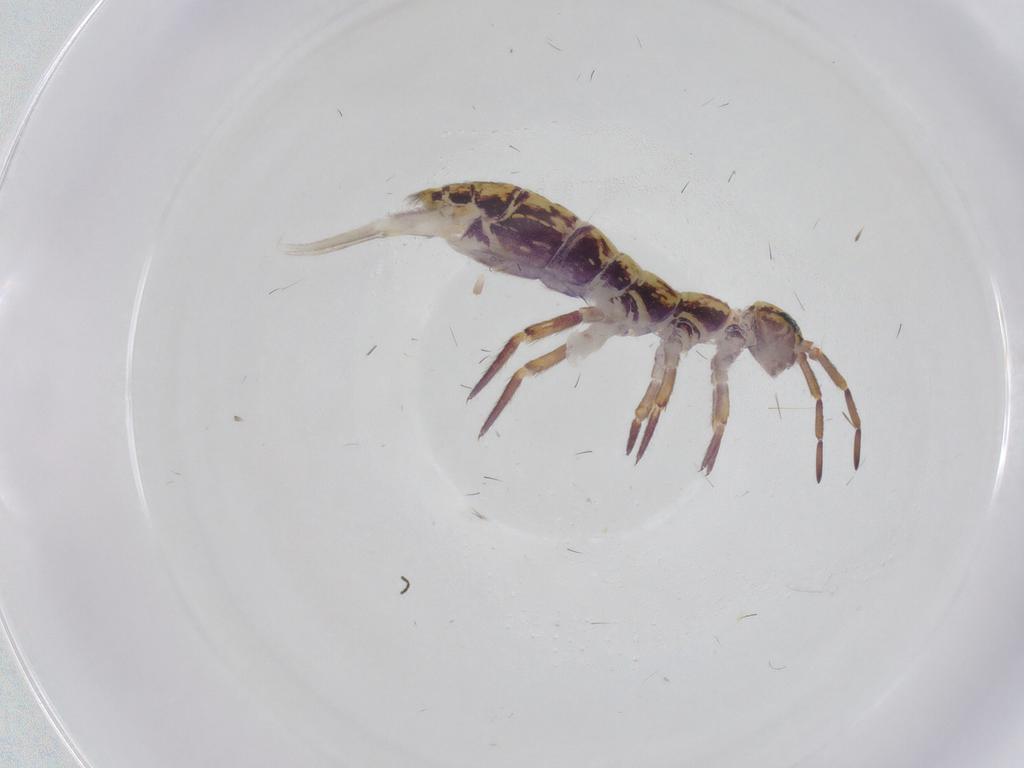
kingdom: Animalia
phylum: Arthropoda
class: Collembola
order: Entomobryomorpha
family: Isotomidae
